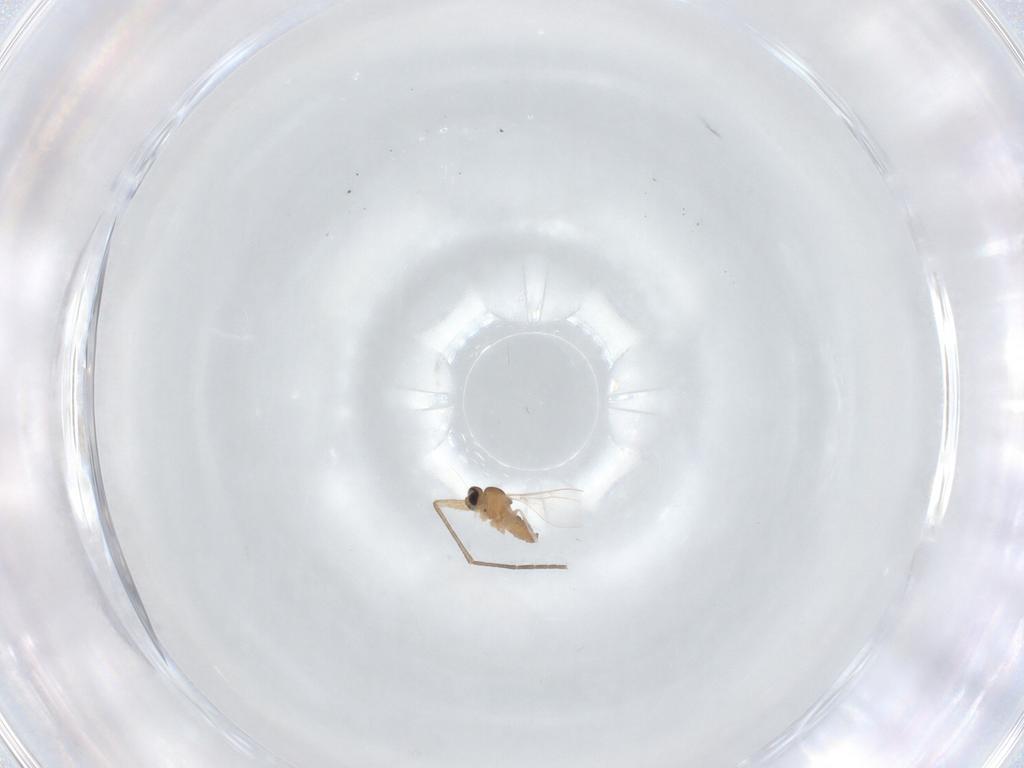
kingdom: Animalia
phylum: Arthropoda
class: Insecta
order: Diptera
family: Cecidomyiidae
